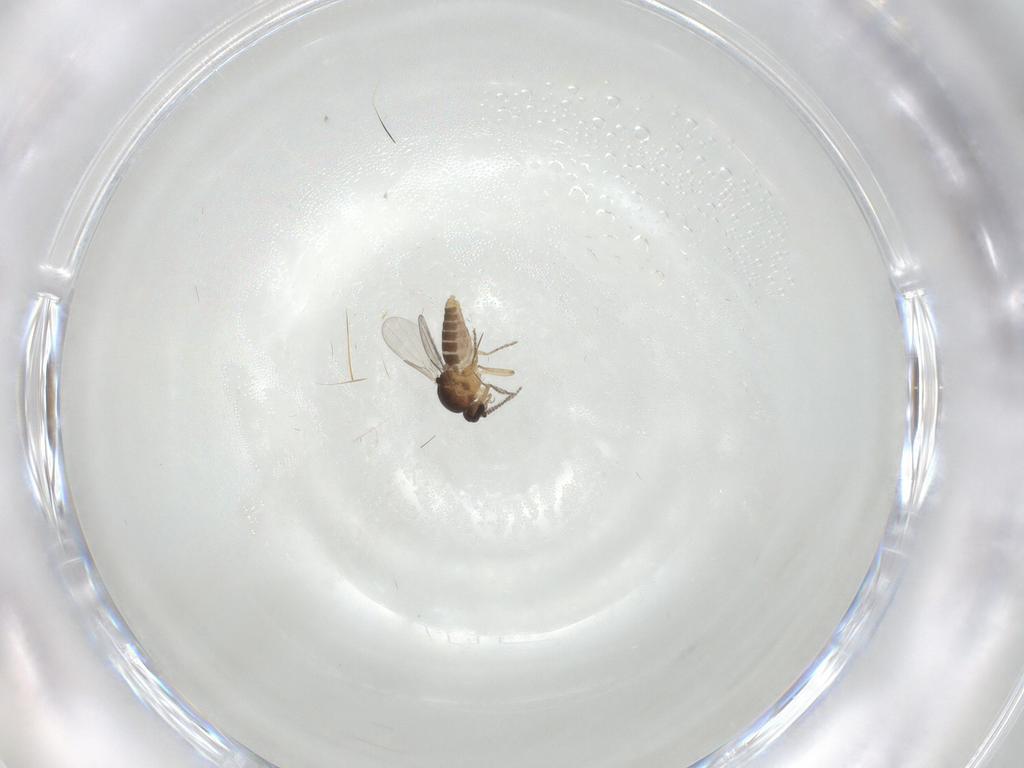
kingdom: Animalia
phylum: Arthropoda
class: Insecta
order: Diptera
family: Ceratopogonidae
